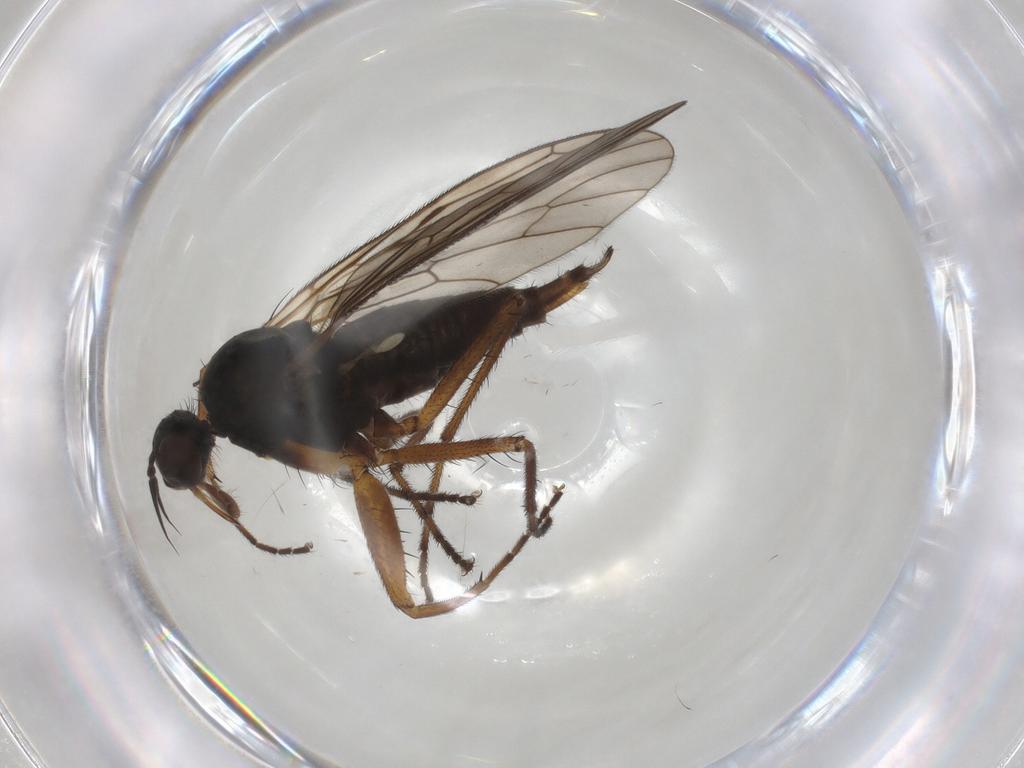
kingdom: Animalia
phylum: Arthropoda
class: Insecta
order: Diptera
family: Empididae
